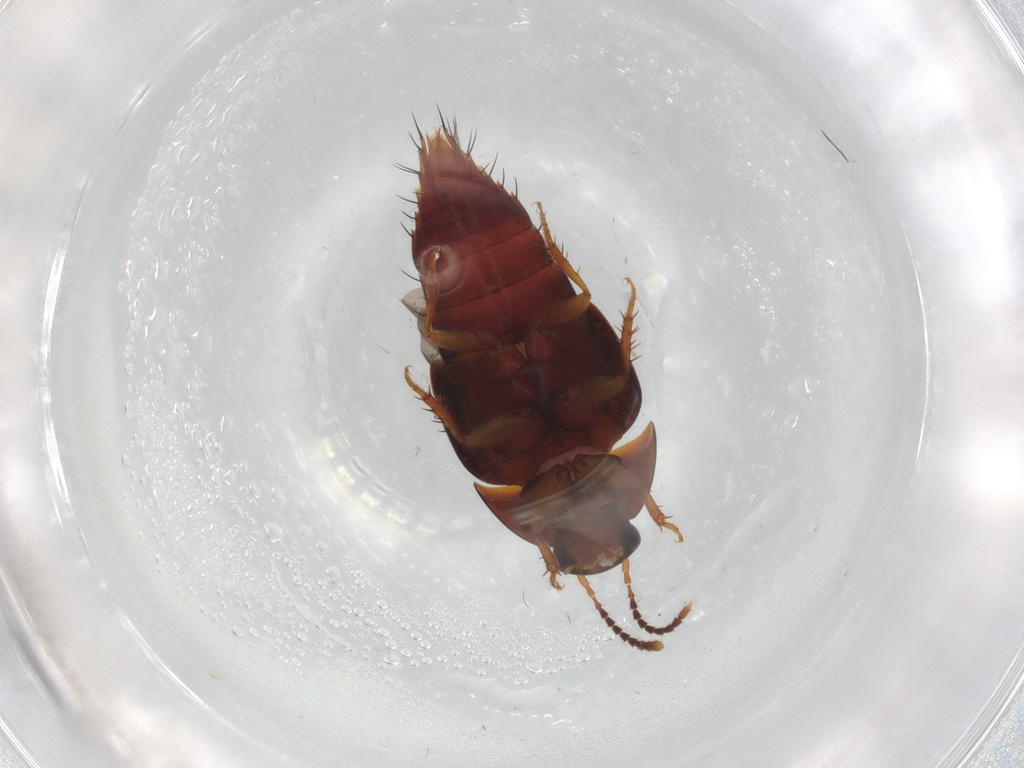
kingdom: Animalia
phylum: Arthropoda
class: Insecta
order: Coleoptera
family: Staphylinidae
